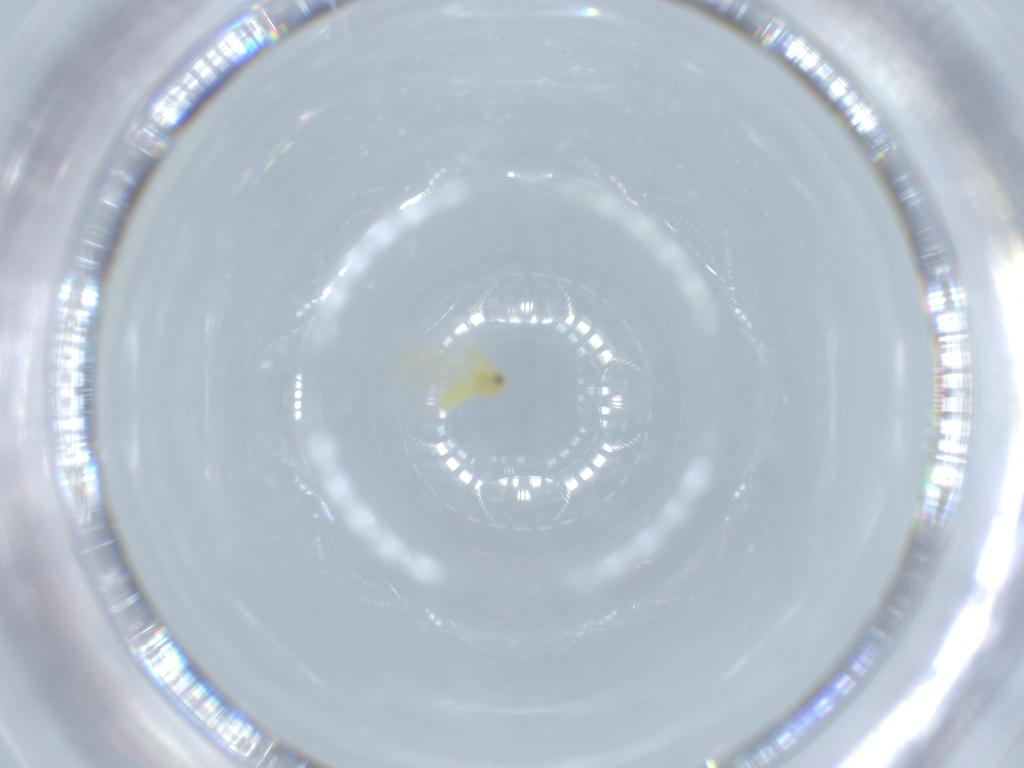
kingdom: Animalia
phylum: Arthropoda
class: Insecta
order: Hemiptera
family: Aleyrodidae
